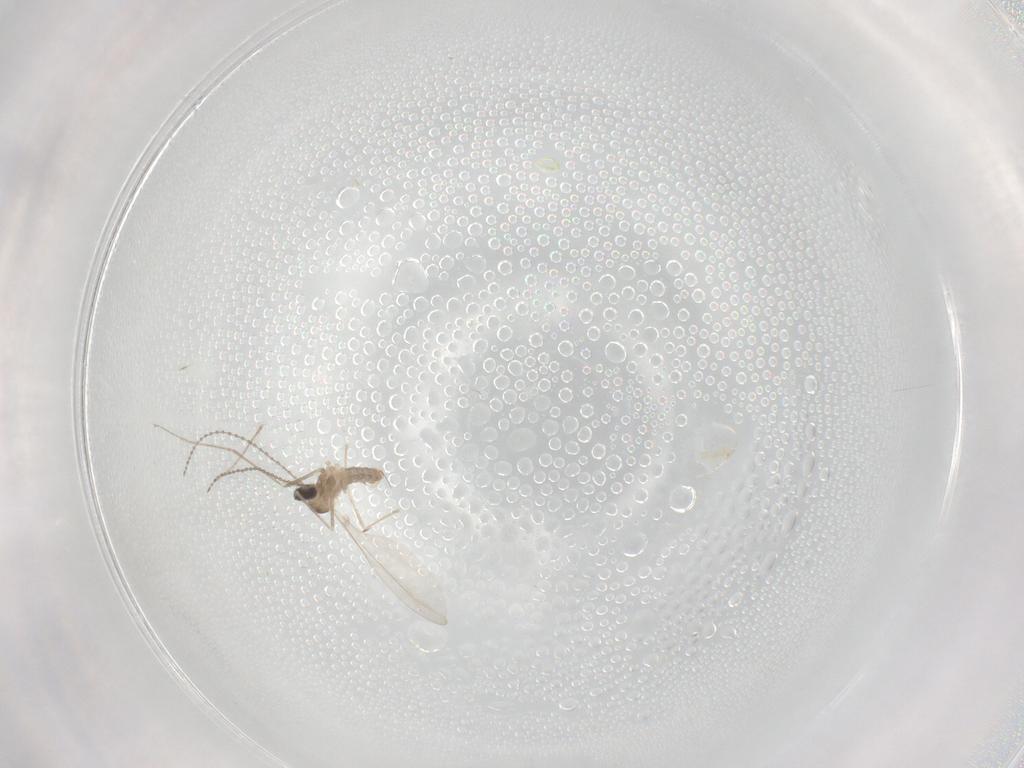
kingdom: Animalia
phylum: Arthropoda
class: Insecta
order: Diptera
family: Cecidomyiidae
